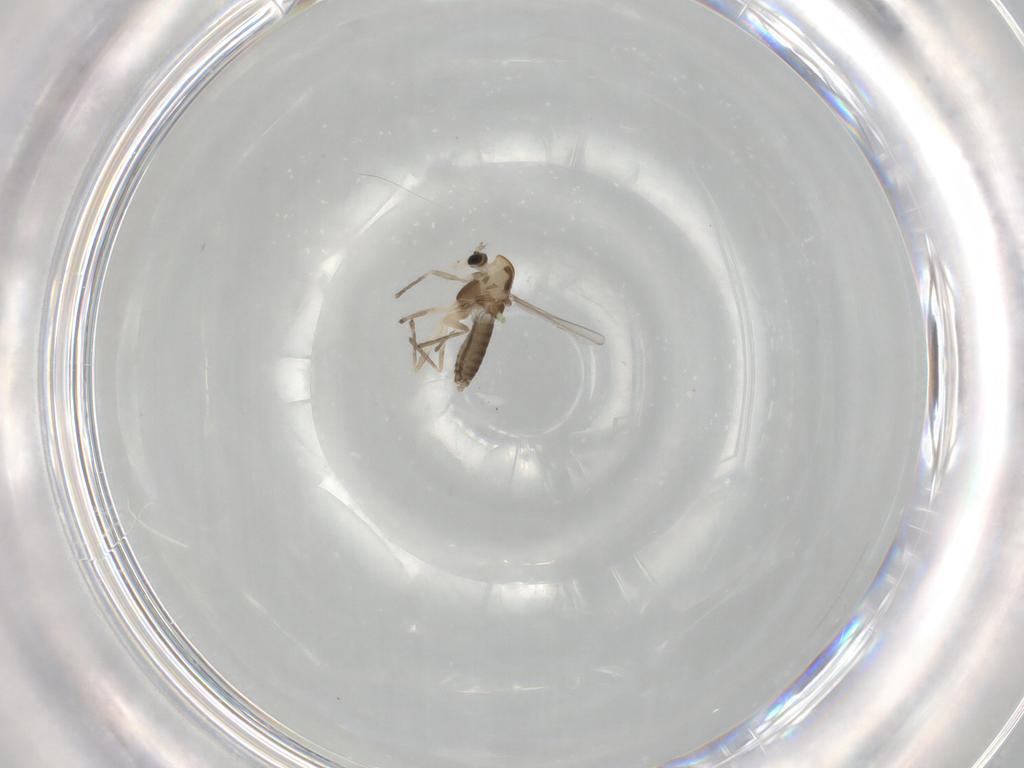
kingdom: Animalia
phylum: Arthropoda
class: Insecta
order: Diptera
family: Chironomidae
